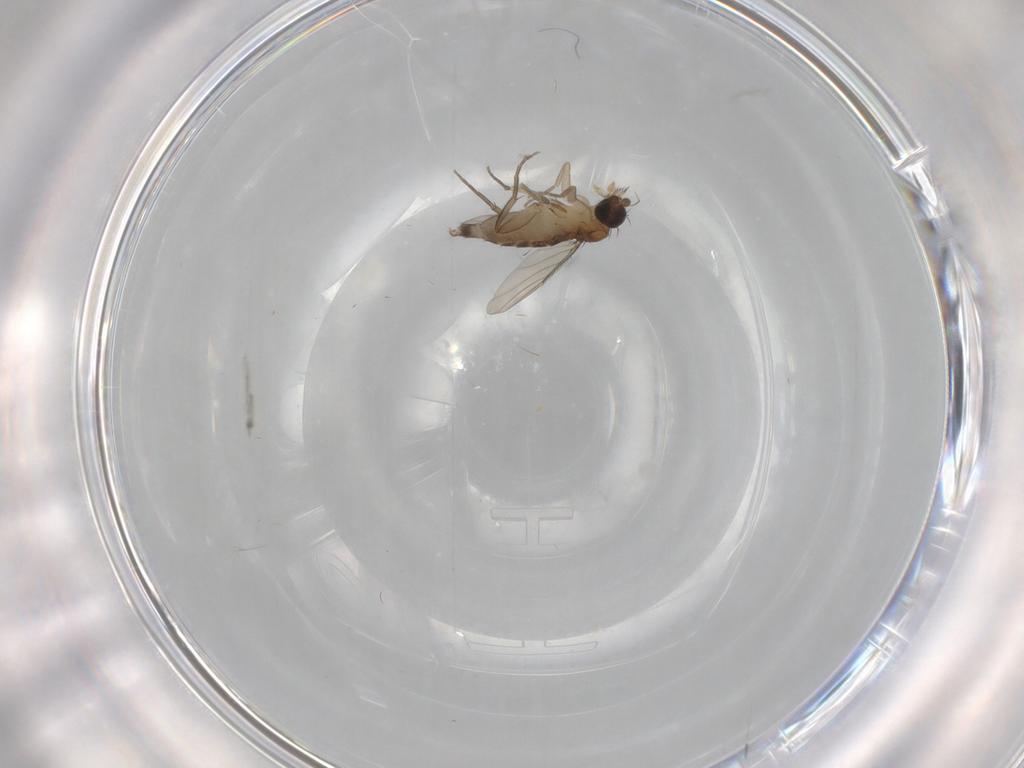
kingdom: Animalia
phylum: Arthropoda
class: Insecta
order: Diptera
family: Phoridae
